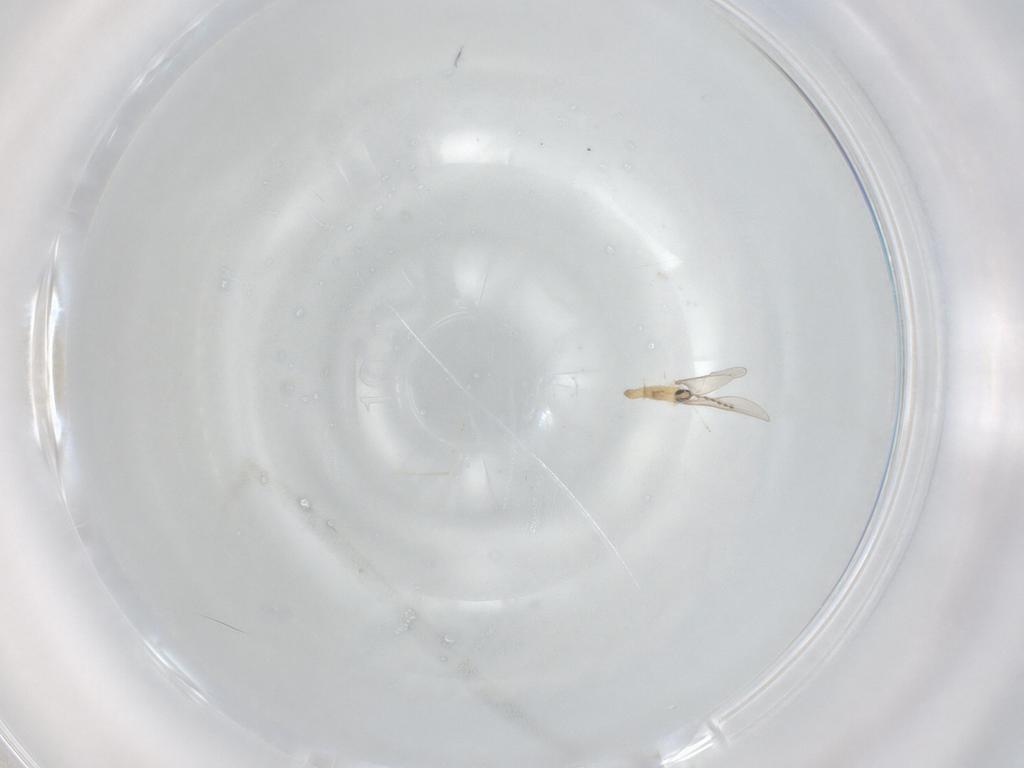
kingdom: Animalia
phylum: Arthropoda
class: Insecta
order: Diptera
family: Cecidomyiidae
